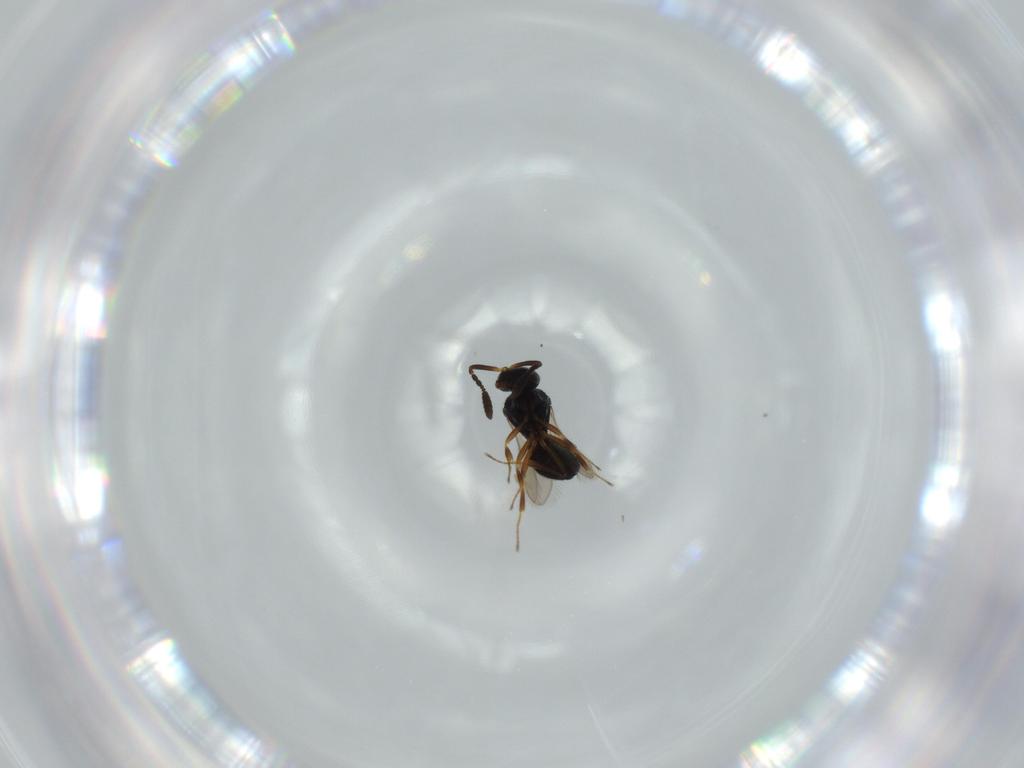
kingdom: Animalia
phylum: Arthropoda
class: Insecta
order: Hymenoptera
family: Scelionidae
